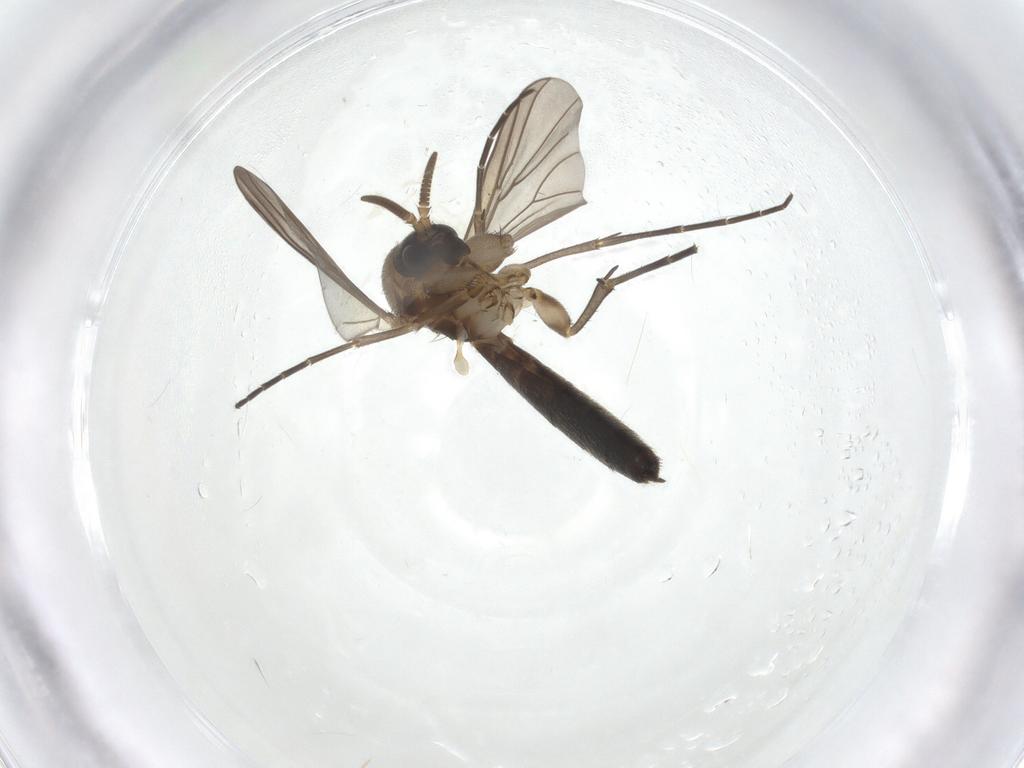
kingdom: Animalia
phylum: Arthropoda
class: Insecta
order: Diptera
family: Mycetophilidae
